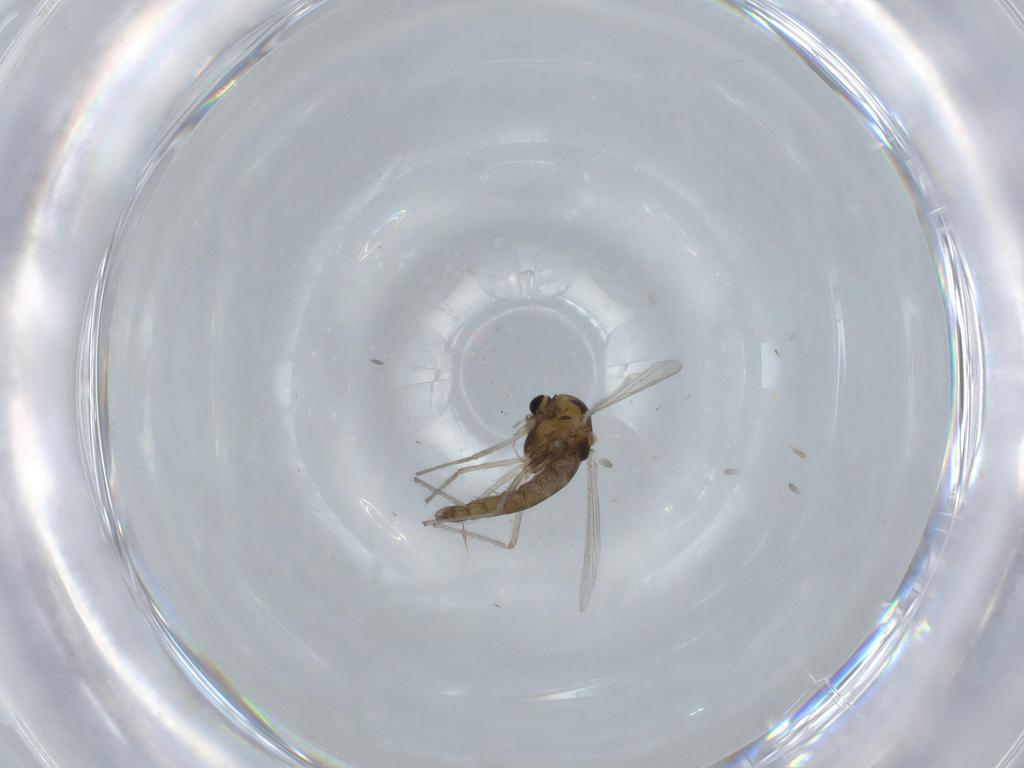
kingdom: Animalia
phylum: Arthropoda
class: Insecta
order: Diptera
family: Chironomidae
